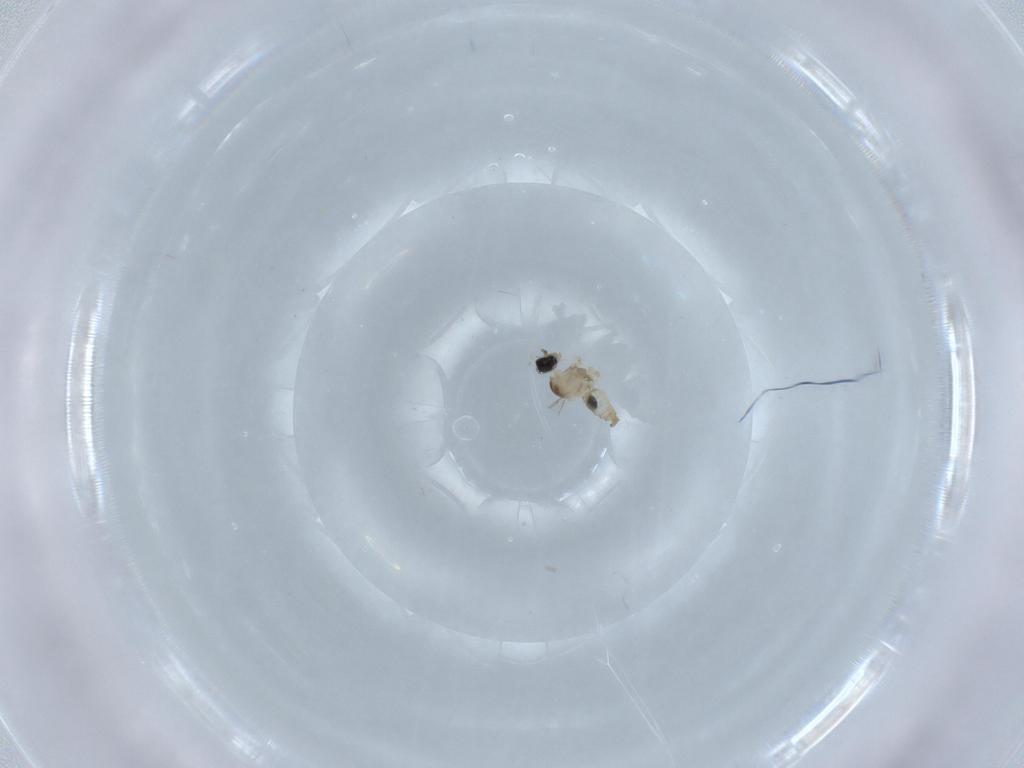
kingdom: Animalia
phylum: Arthropoda
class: Insecta
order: Diptera
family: Cecidomyiidae
